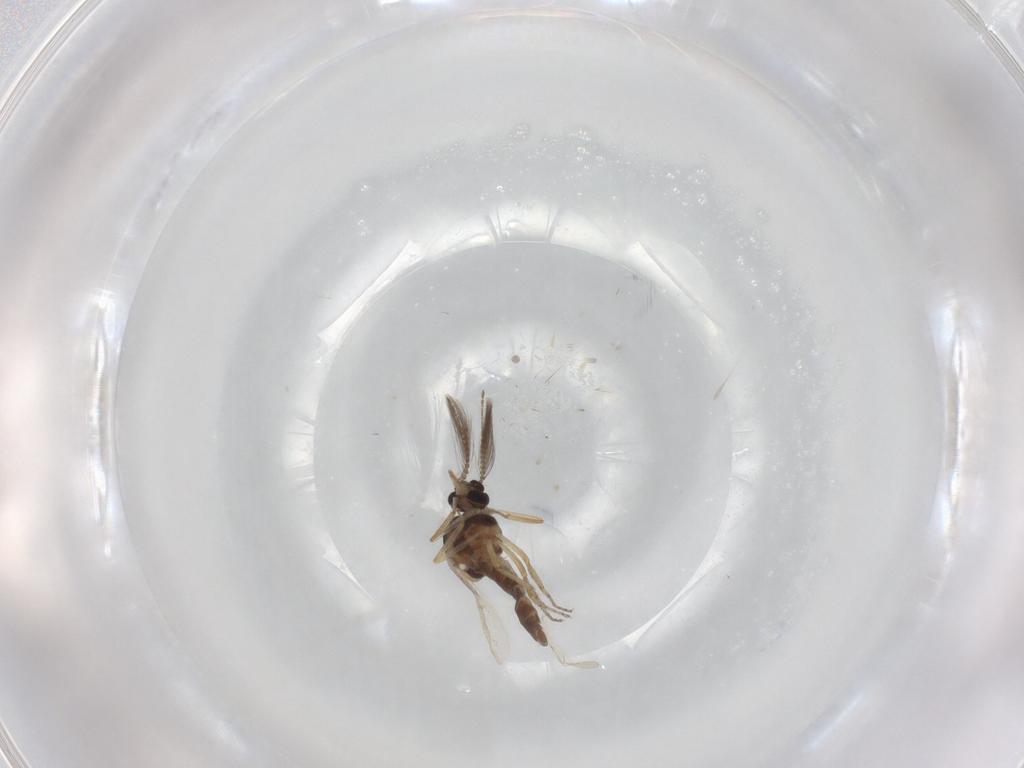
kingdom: Animalia
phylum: Arthropoda
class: Insecta
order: Diptera
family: Ceratopogonidae
